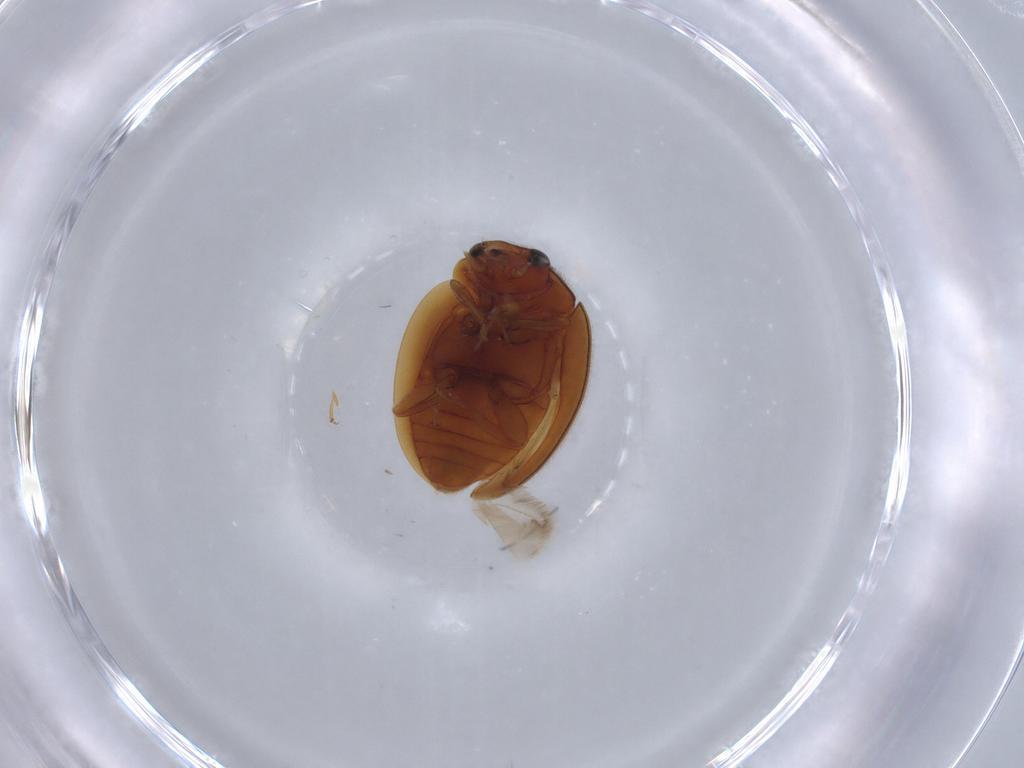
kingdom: Animalia
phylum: Arthropoda
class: Insecta
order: Coleoptera
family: Coccinellidae
